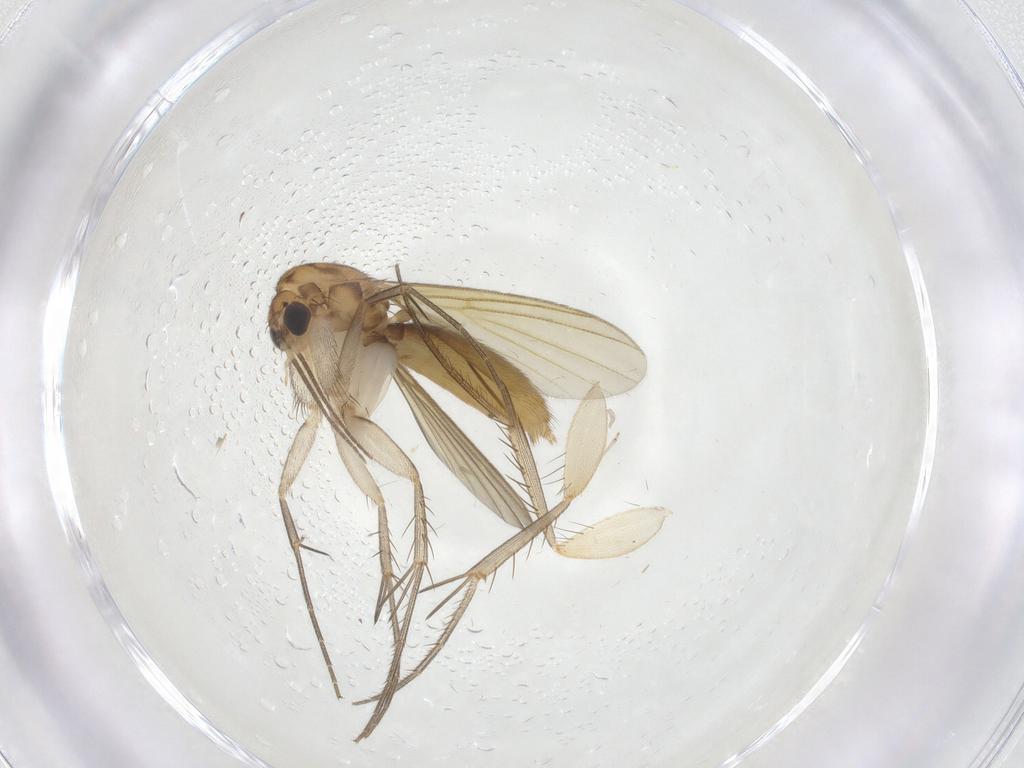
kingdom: Animalia
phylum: Arthropoda
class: Insecta
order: Diptera
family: Mycetophilidae
